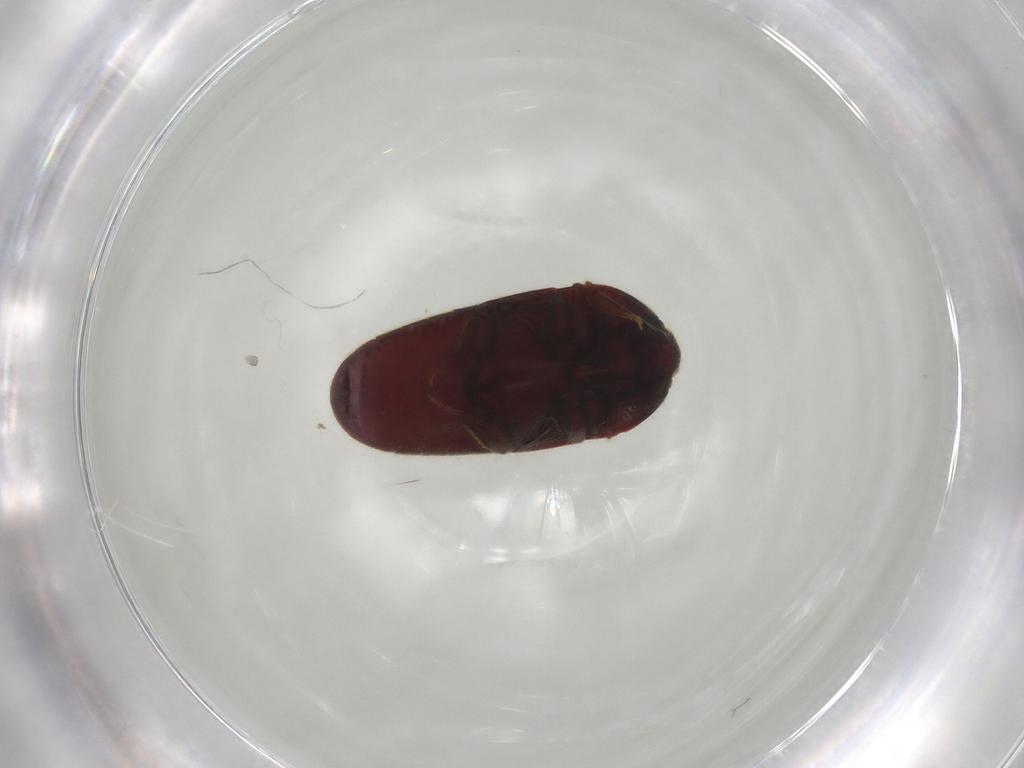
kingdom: Animalia
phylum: Arthropoda
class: Insecta
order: Coleoptera
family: Throscidae
